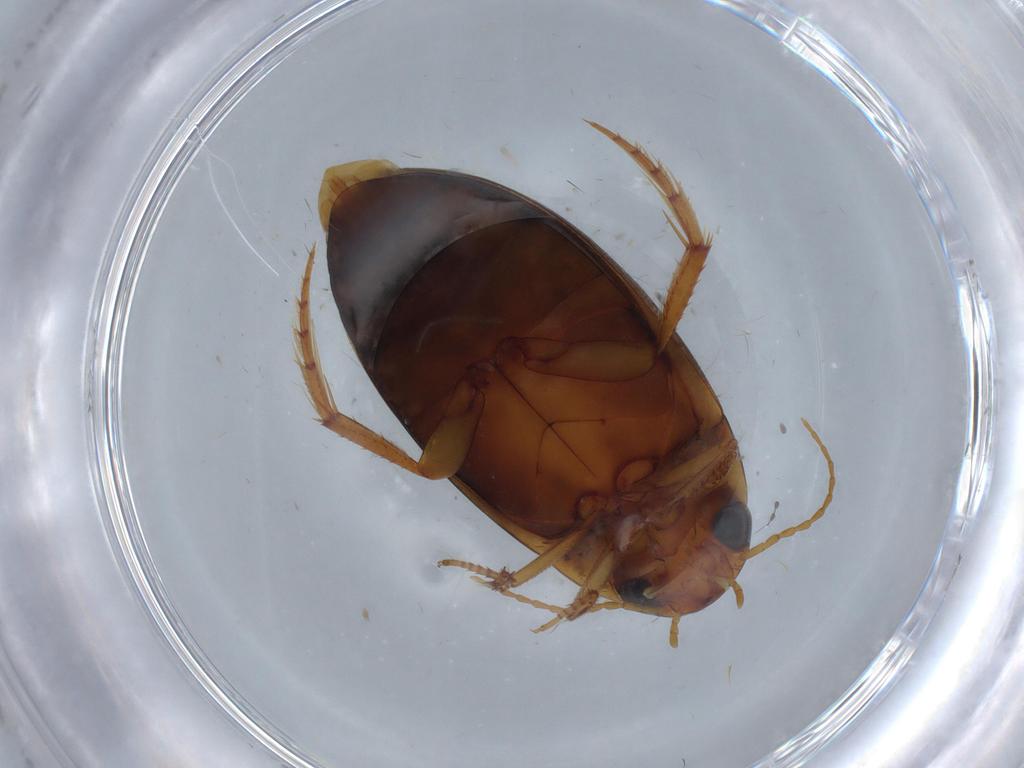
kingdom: Animalia
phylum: Arthropoda
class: Insecta
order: Coleoptera
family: Dytiscidae
